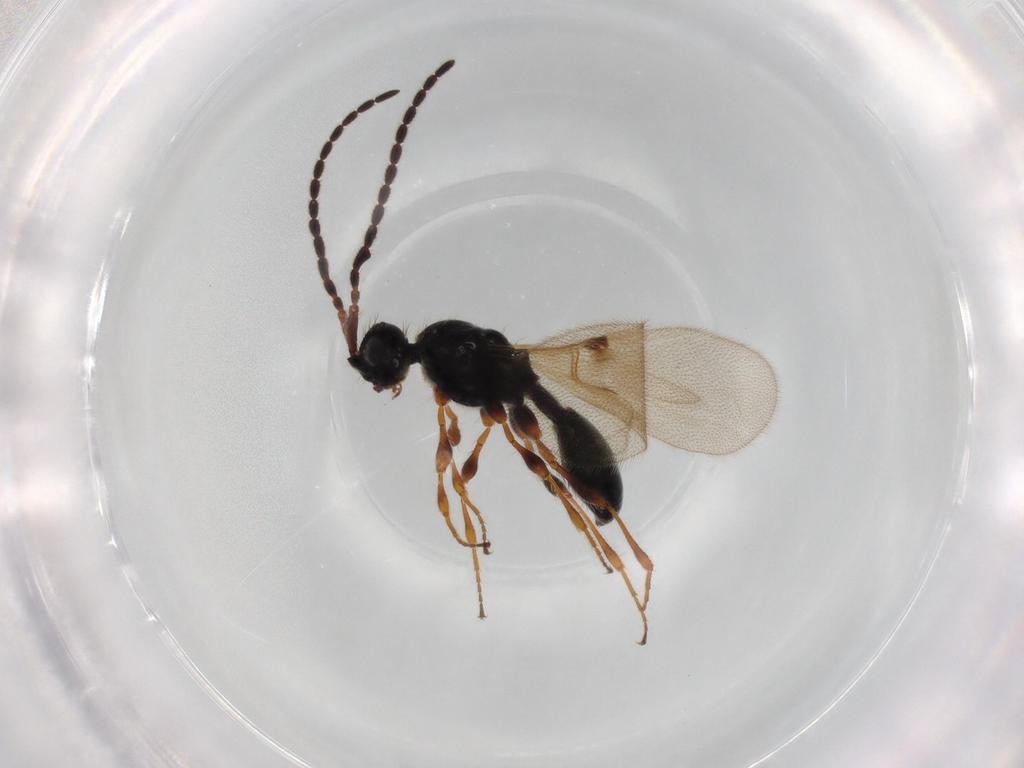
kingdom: Animalia
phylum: Arthropoda
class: Insecta
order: Hymenoptera
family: Diapriidae
